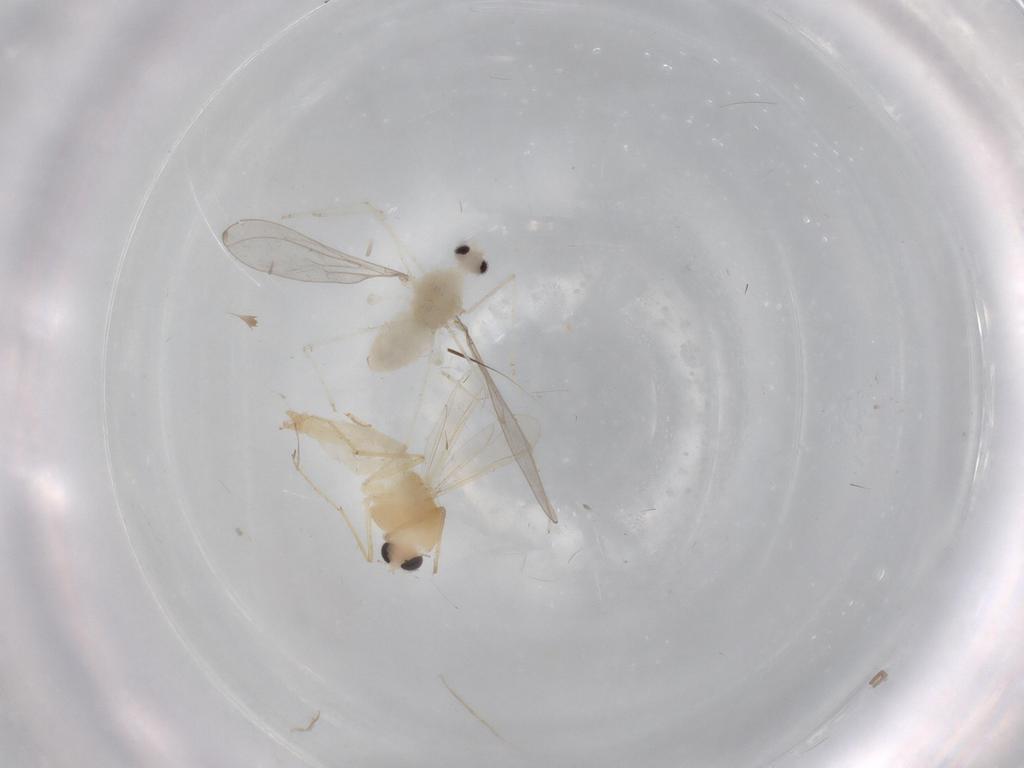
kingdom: Animalia
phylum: Arthropoda
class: Insecta
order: Diptera
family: Chironomidae
